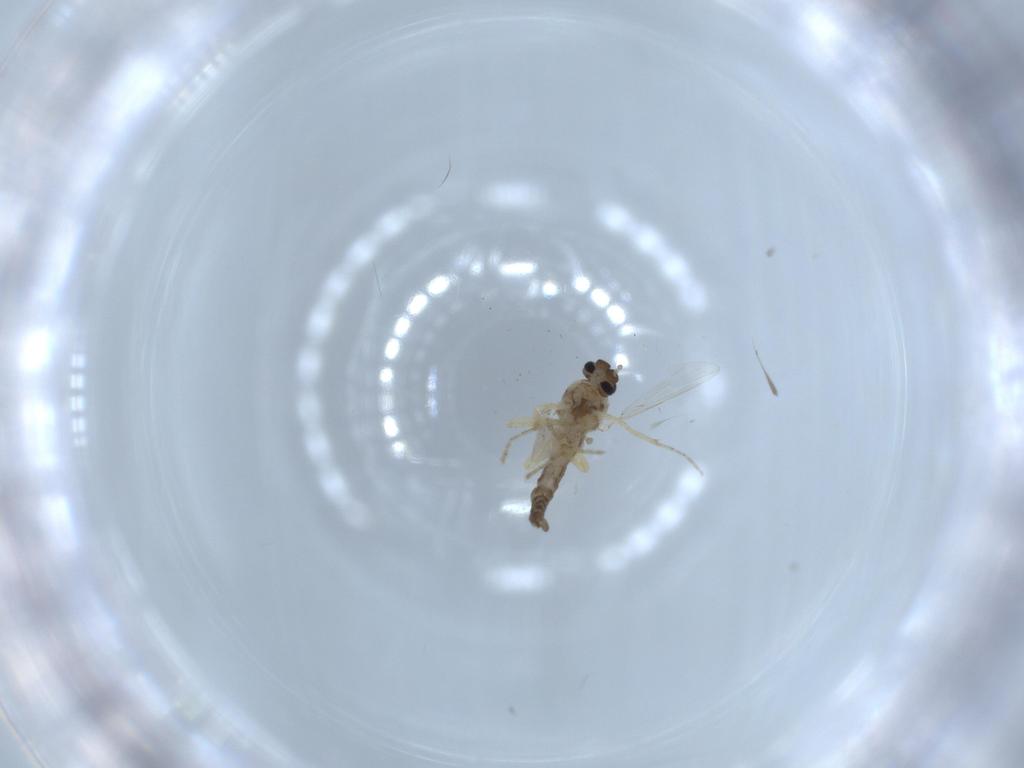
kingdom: Animalia
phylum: Arthropoda
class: Insecta
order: Diptera
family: Ceratopogonidae
